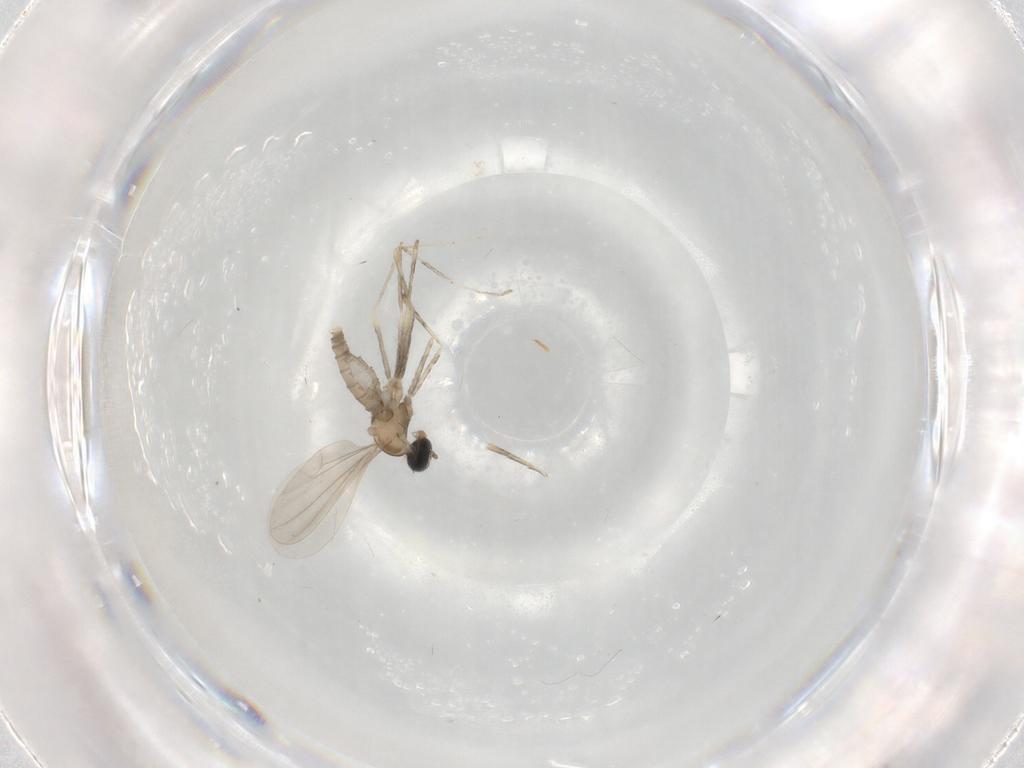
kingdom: Animalia
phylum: Arthropoda
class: Insecta
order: Diptera
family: Cecidomyiidae
